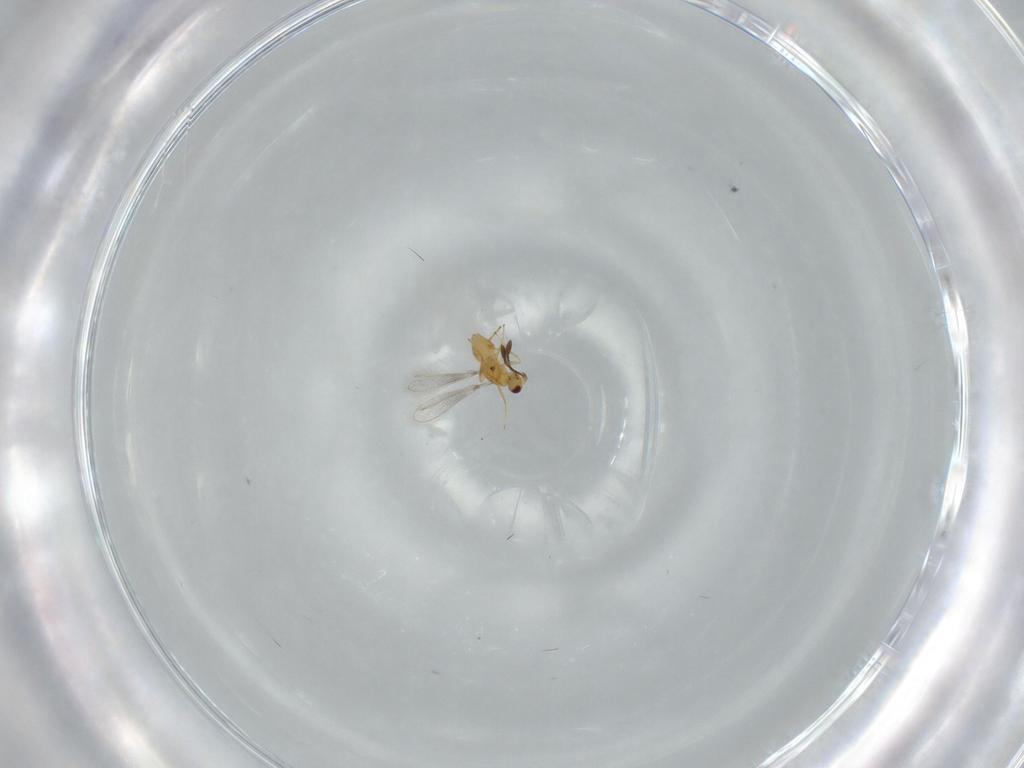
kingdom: Animalia
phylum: Arthropoda
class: Insecta
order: Hymenoptera
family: Mymaridae
